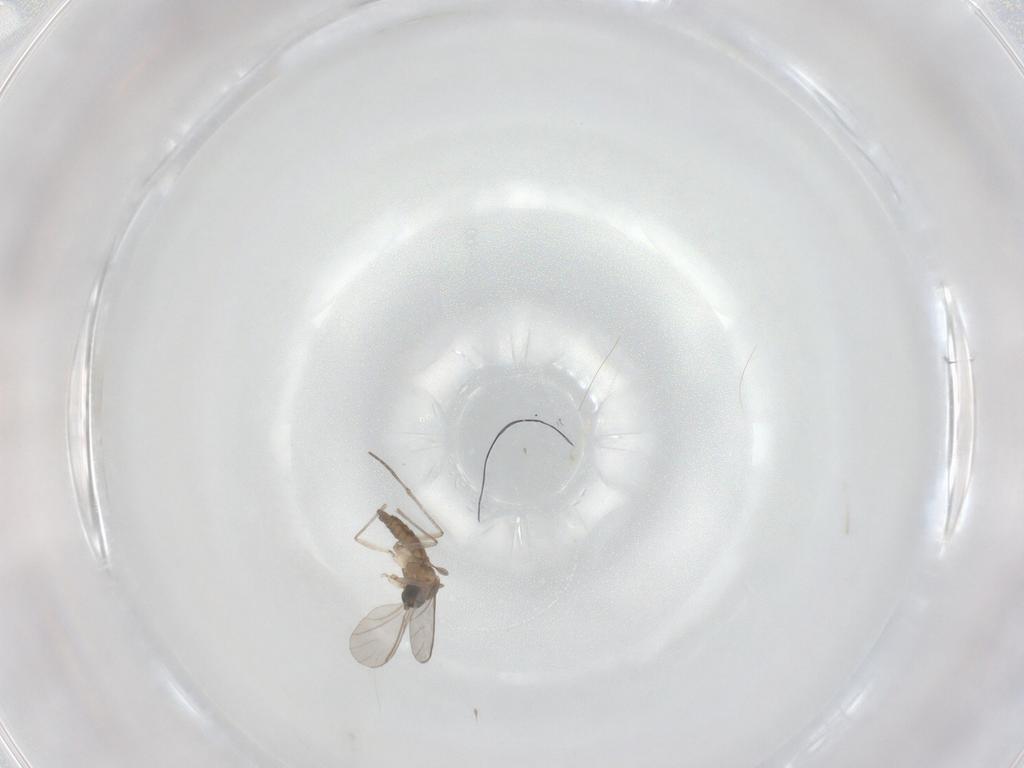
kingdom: Animalia
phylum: Arthropoda
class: Insecta
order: Diptera
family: Sciaridae
